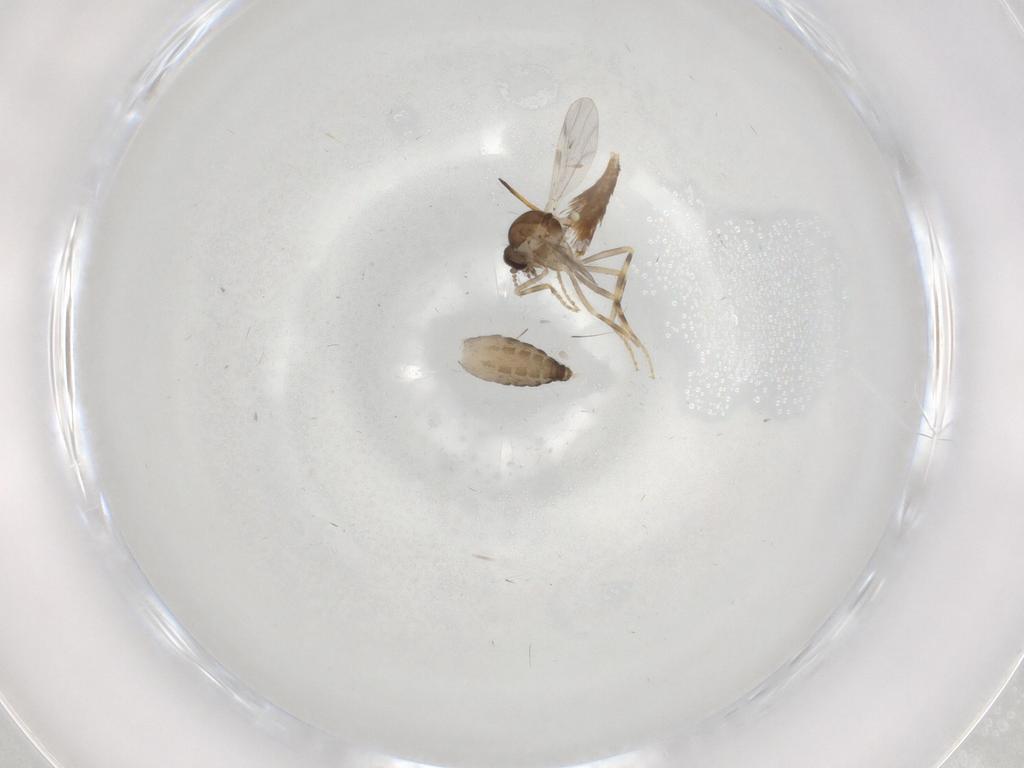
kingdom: Animalia
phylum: Arthropoda
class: Insecta
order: Diptera
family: Ceratopogonidae
